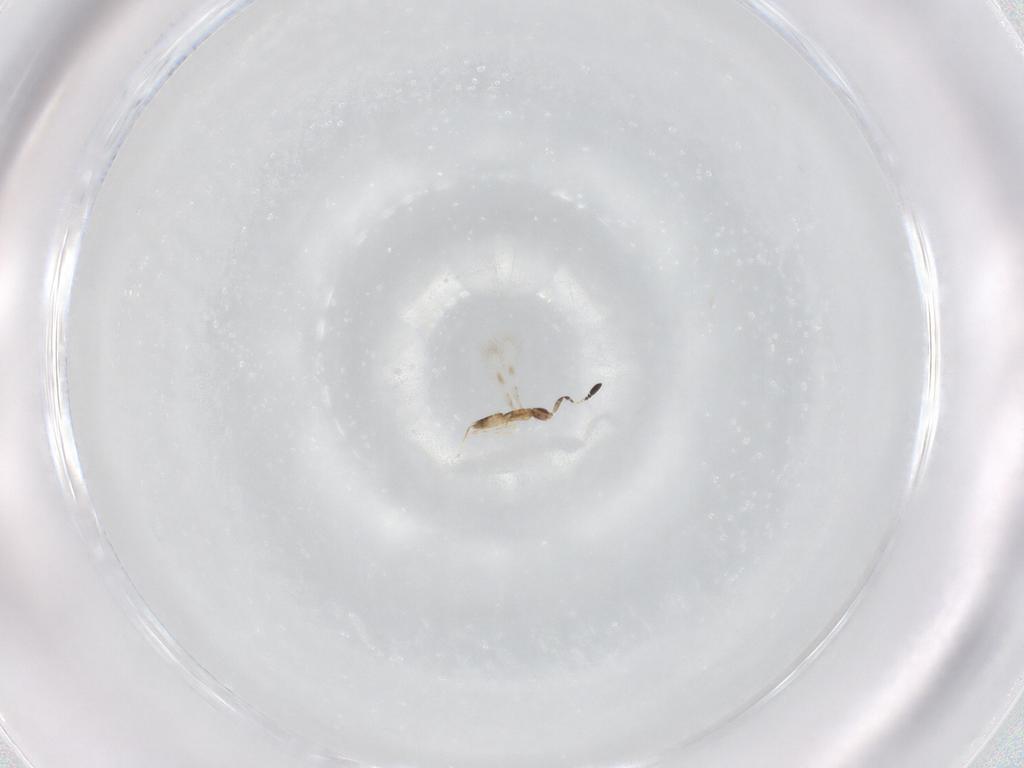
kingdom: Animalia
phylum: Arthropoda
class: Insecta
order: Hymenoptera
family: Mymaridae
